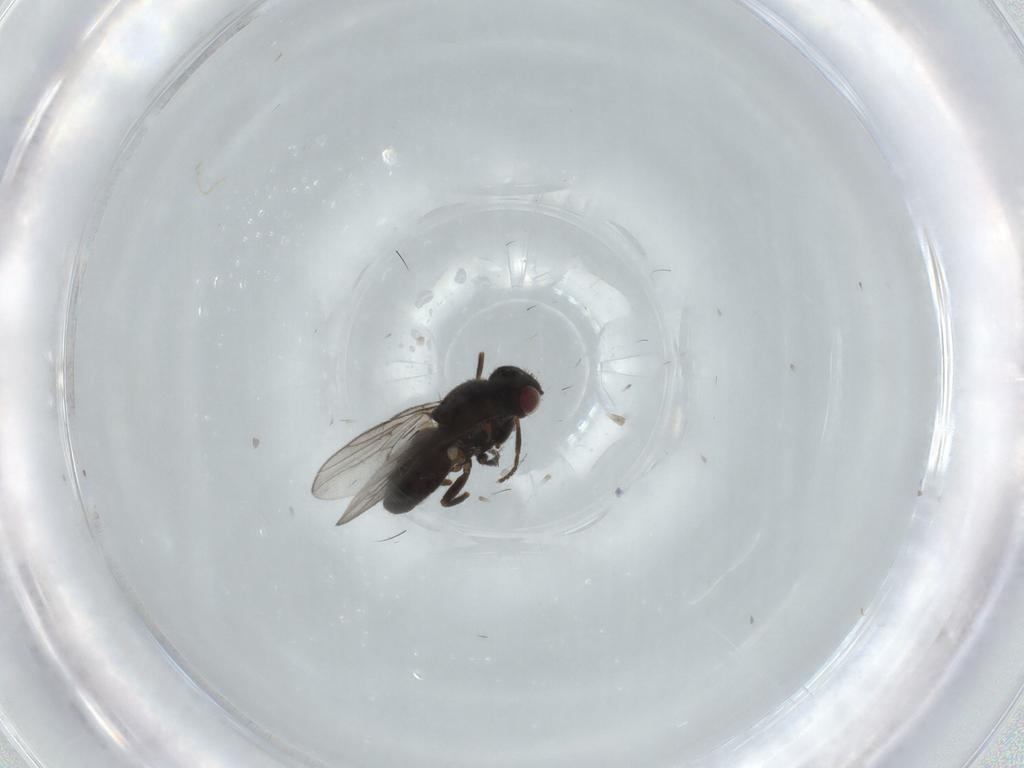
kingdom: Animalia
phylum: Arthropoda
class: Insecta
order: Diptera
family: Chloropidae
